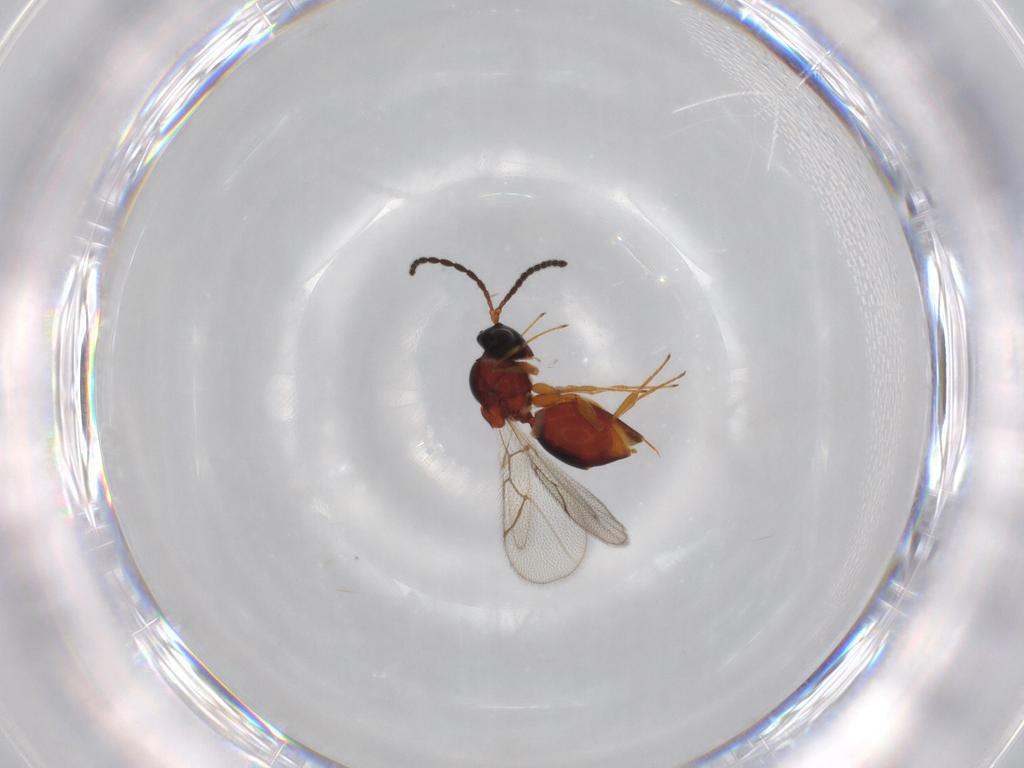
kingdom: Animalia
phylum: Arthropoda
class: Insecta
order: Hymenoptera
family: Figitidae
